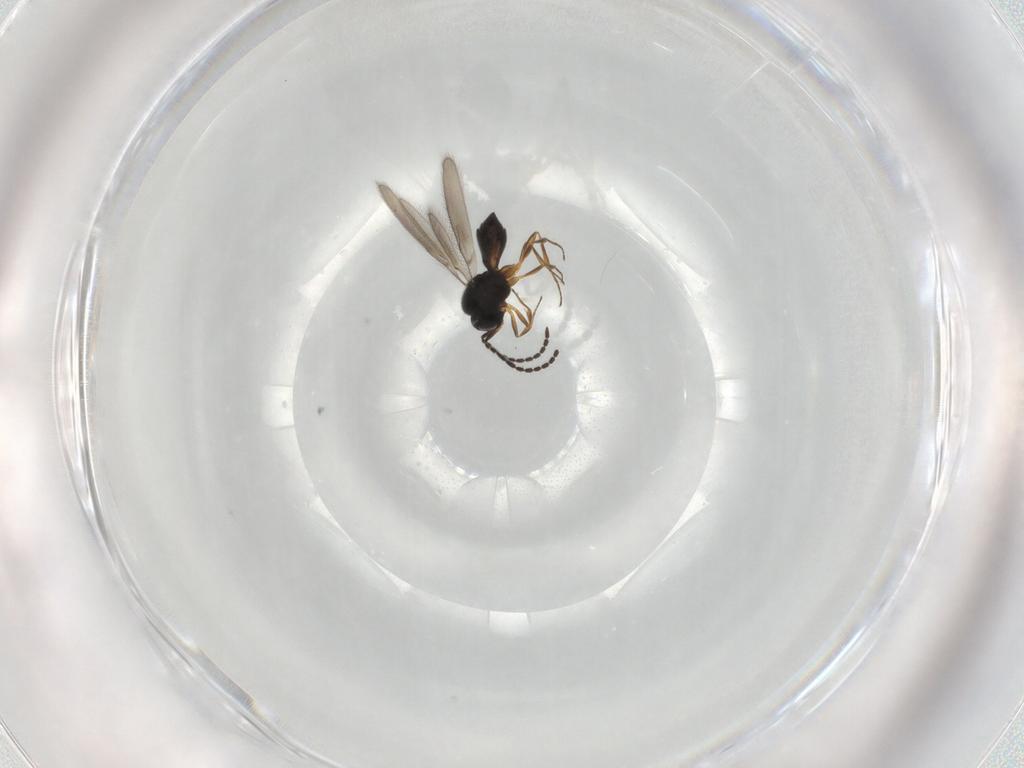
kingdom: Animalia
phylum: Arthropoda
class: Insecta
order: Hymenoptera
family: Scelionidae
